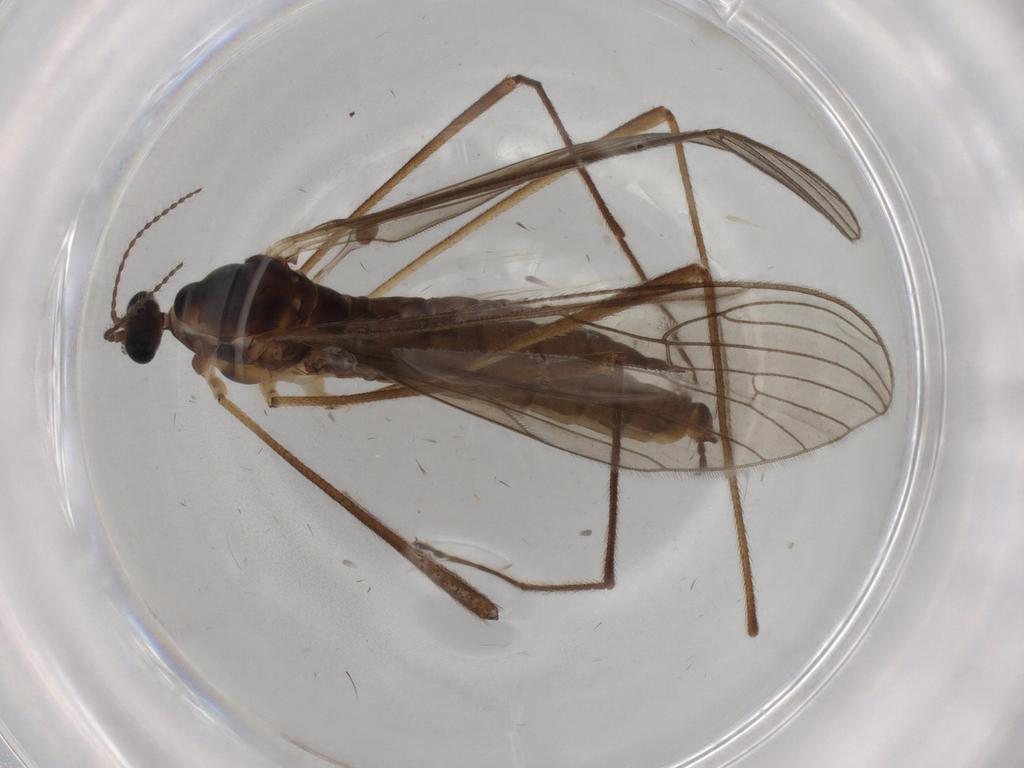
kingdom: Animalia
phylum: Arthropoda
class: Insecta
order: Diptera
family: Limoniidae
